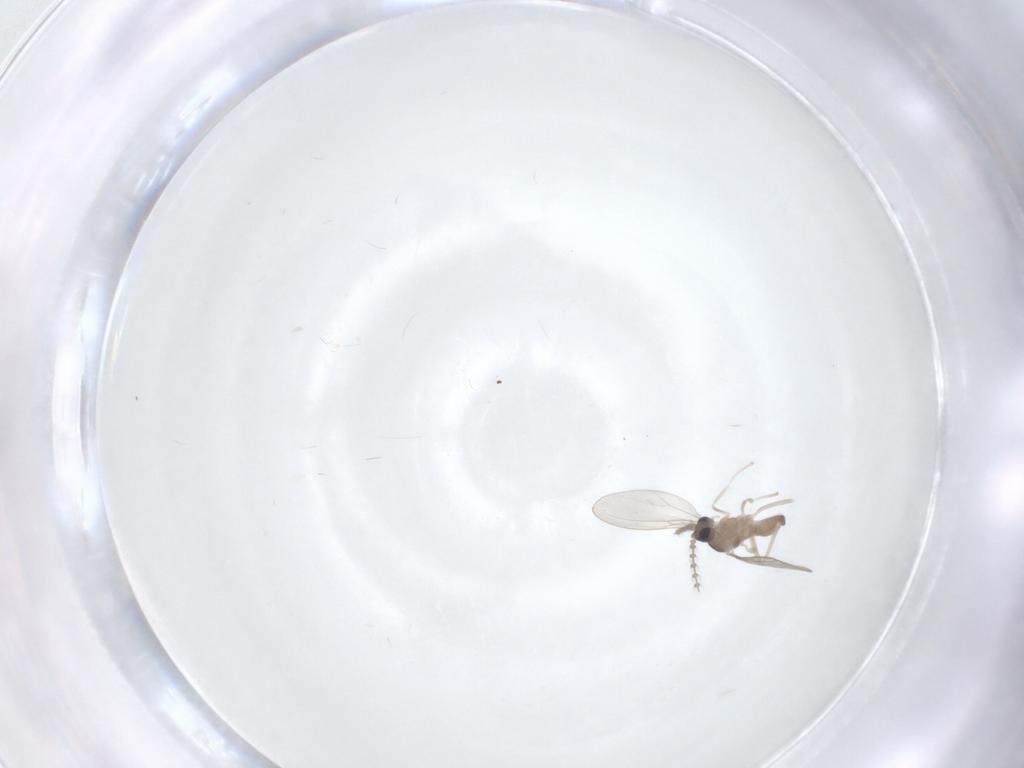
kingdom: Animalia
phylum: Arthropoda
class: Insecta
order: Diptera
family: Cecidomyiidae
